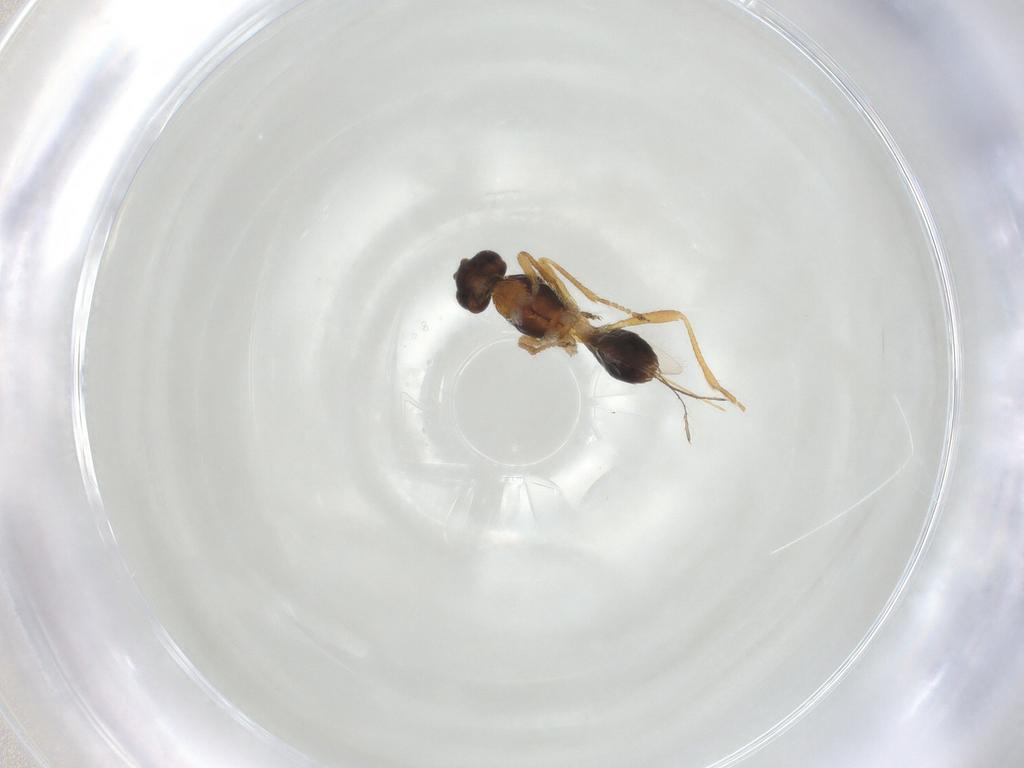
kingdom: Animalia
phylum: Arthropoda
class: Insecta
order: Hymenoptera
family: Braconidae
